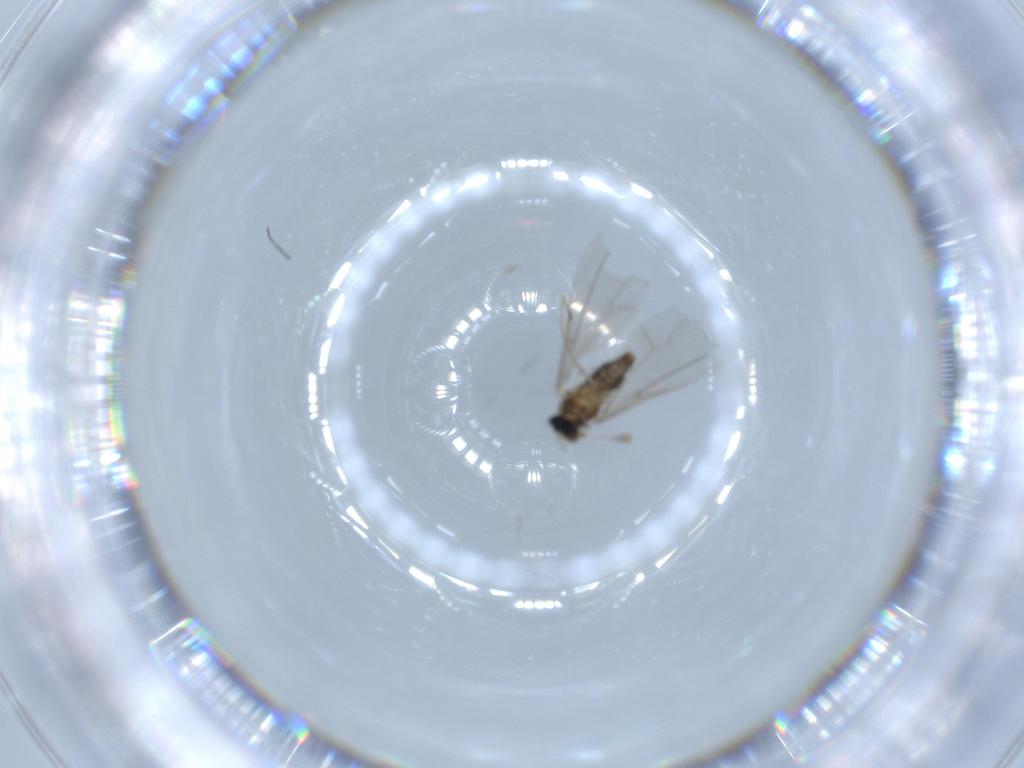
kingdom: Animalia
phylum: Arthropoda
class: Insecta
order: Diptera
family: Cecidomyiidae
